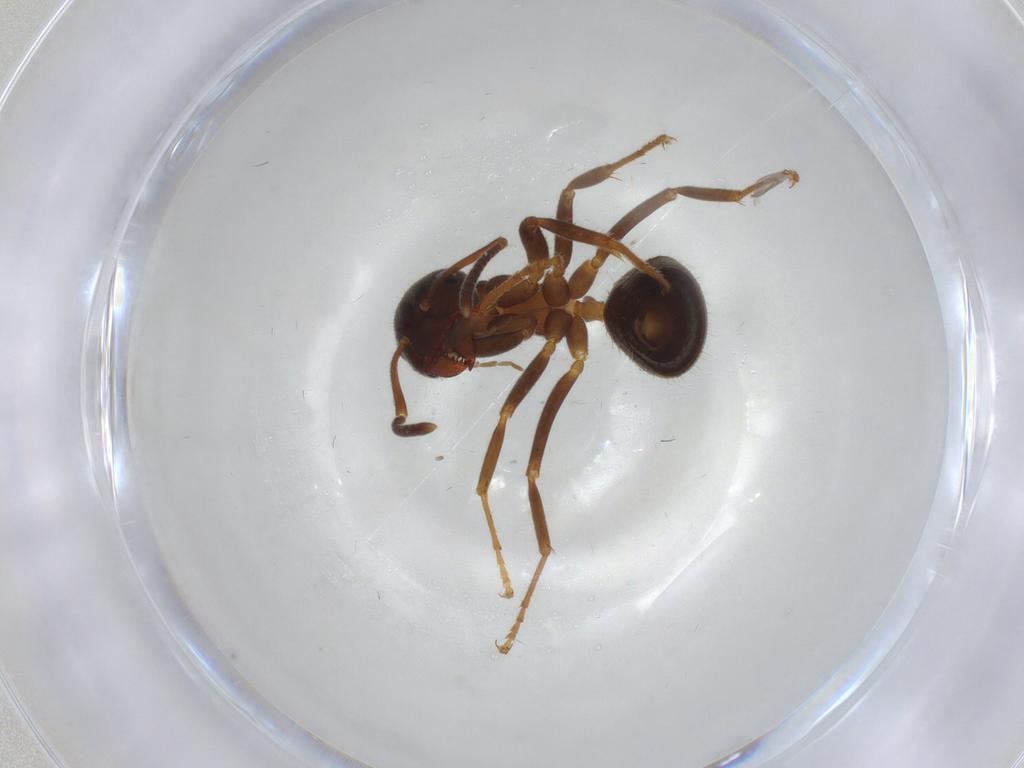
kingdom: Animalia
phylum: Arthropoda
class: Insecta
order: Hymenoptera
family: Formicidae
